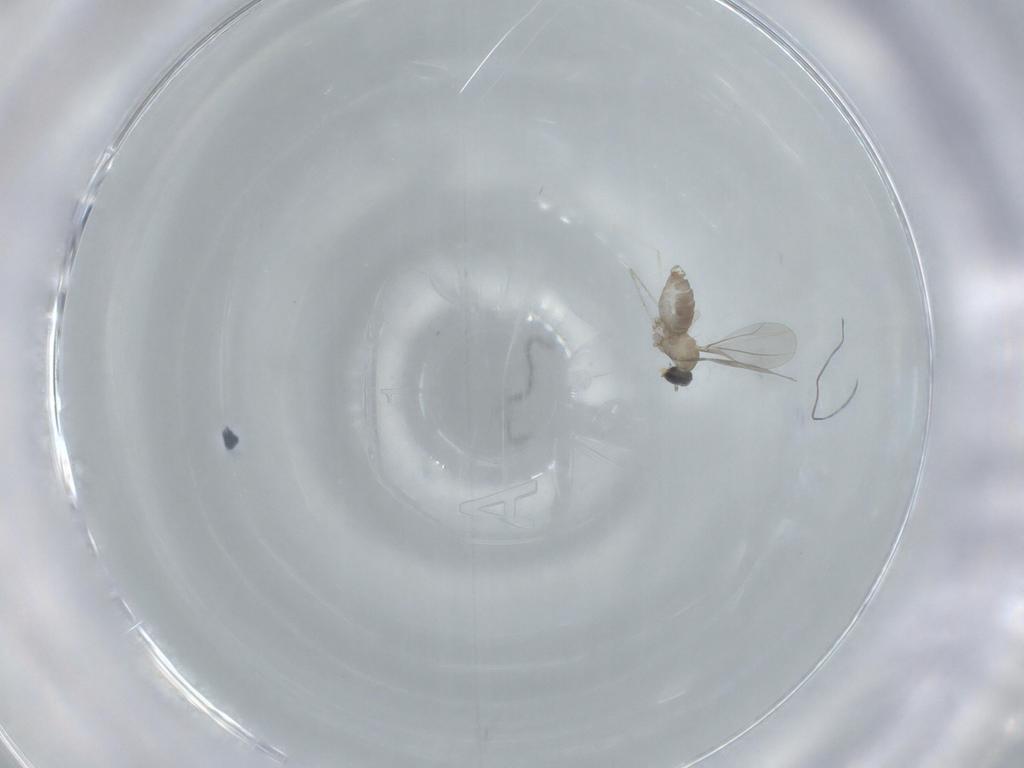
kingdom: Animalia
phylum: Arthropoda
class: Insecta
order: Diptera
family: Cecidomyiidae
